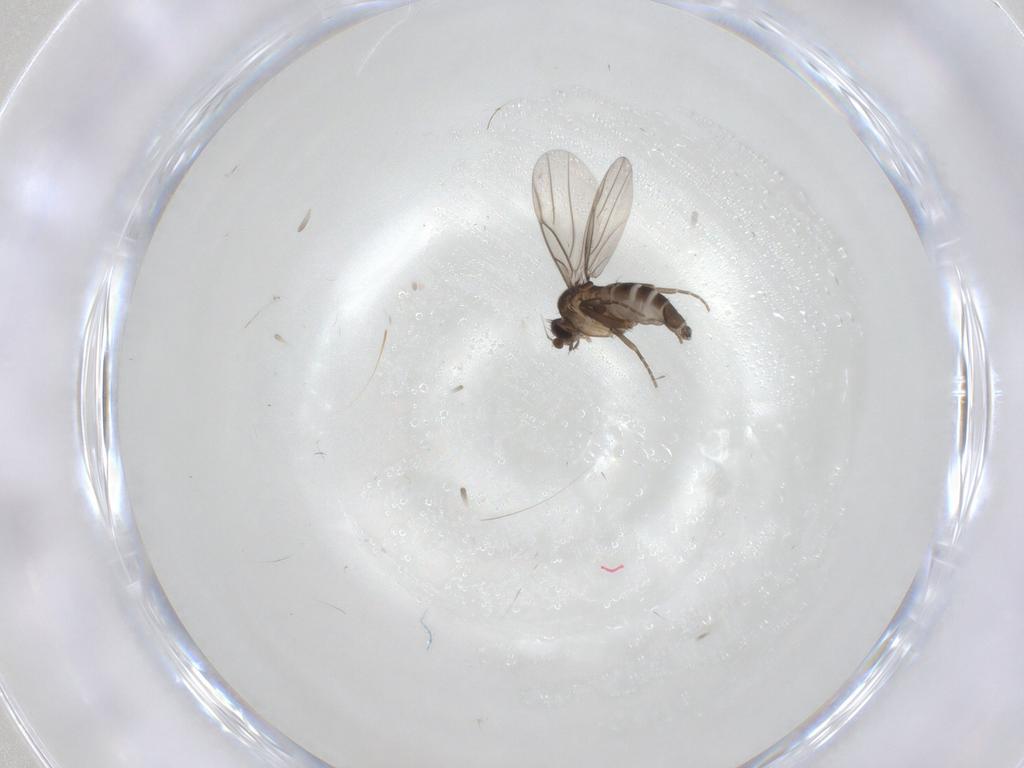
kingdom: Animalia
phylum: Arthropoda
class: Insecta
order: Diptera
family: Phoridae
